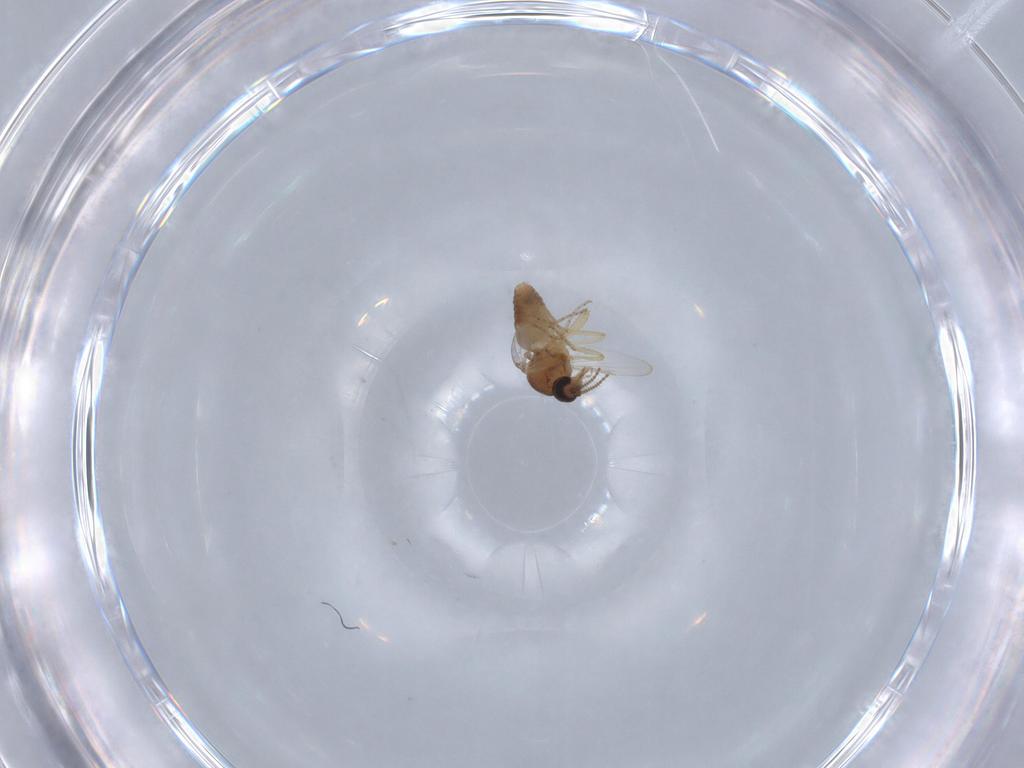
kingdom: Animalia
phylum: Arthropoda
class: Insecta
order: Diptera
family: Ceratopogonidae
